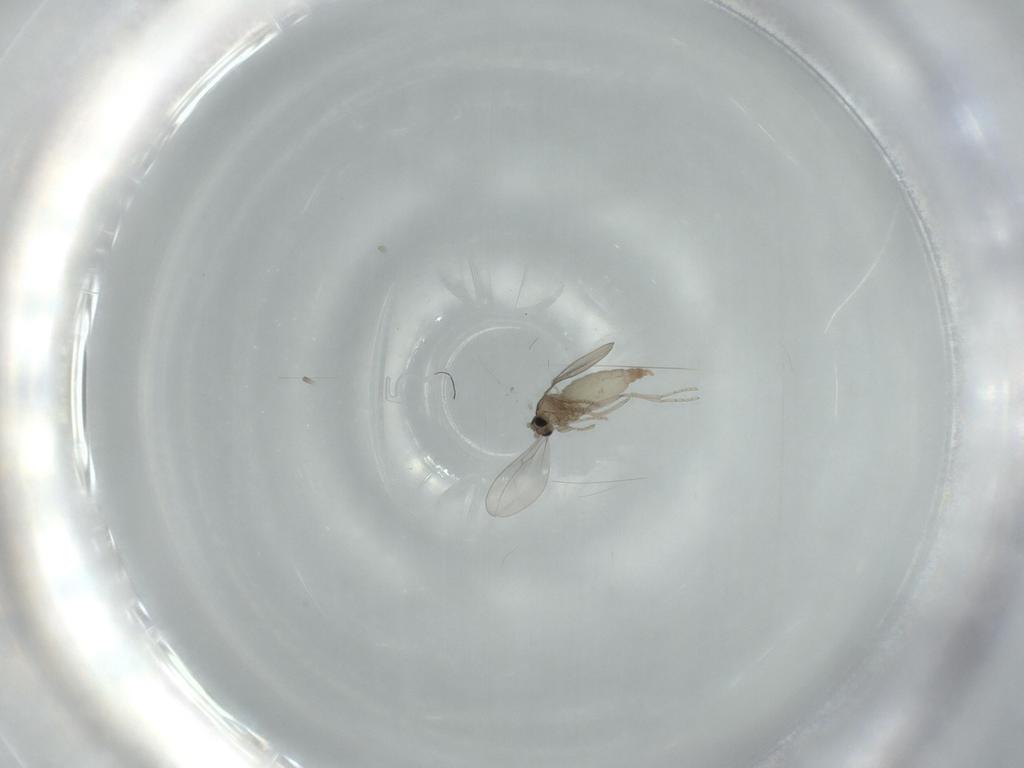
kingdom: Animalia
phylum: Arthropoda
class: Insecta
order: Diptera
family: Cecidomyiidae
